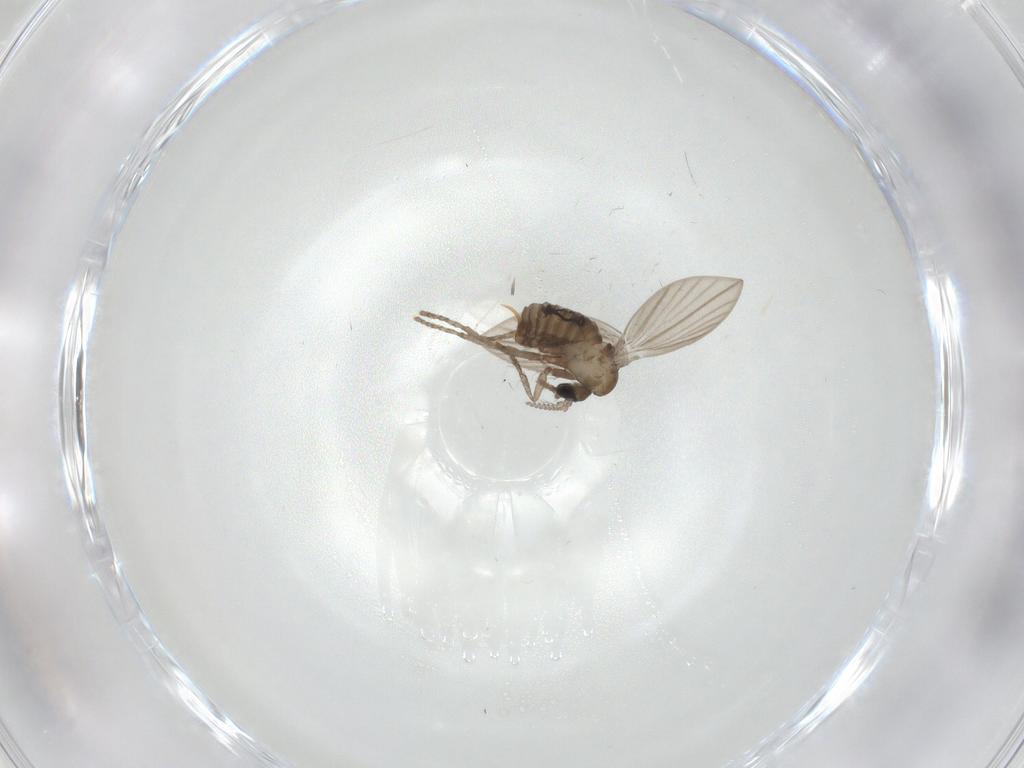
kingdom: Animalia
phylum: Arthropoda
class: Insecta
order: Diptera
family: Psychodidae
